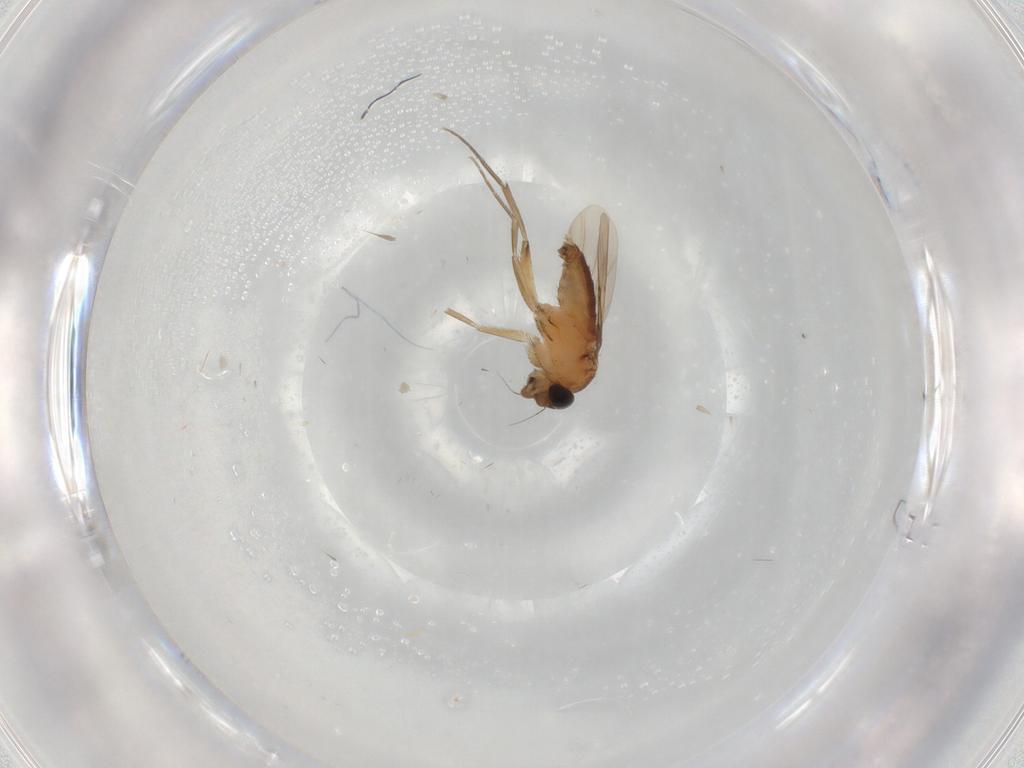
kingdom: Animalia
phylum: Arthropoda
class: Insecta
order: Diptera
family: Phoridae
